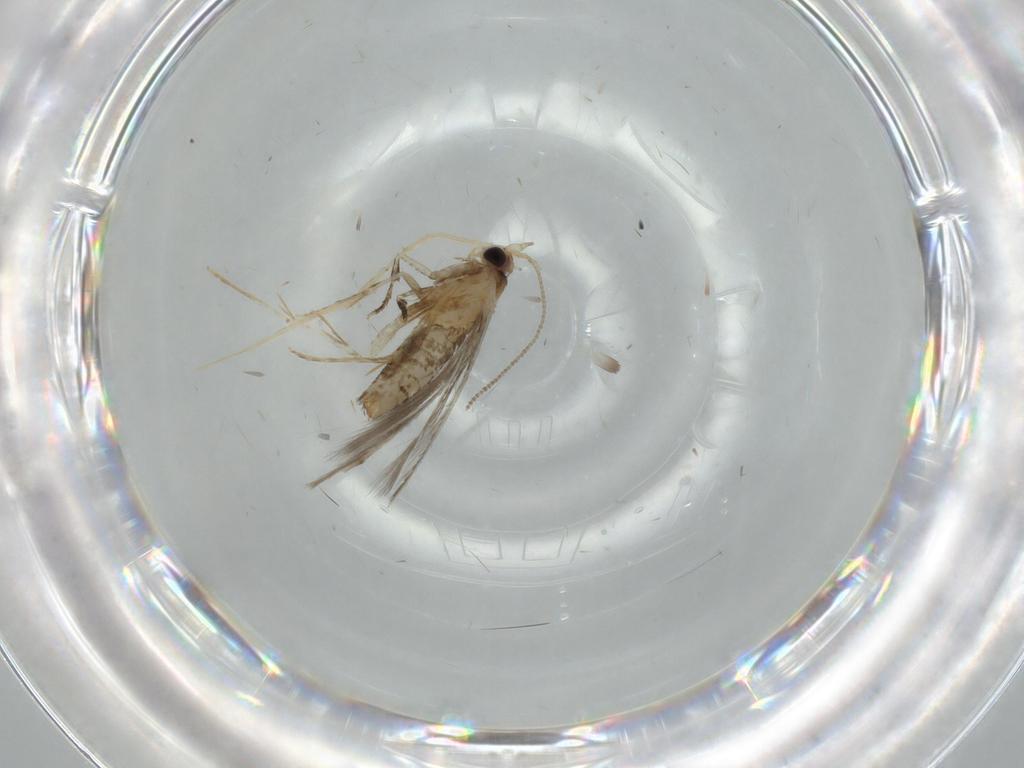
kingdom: Animalia
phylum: Arthropoda
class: Insecta
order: Lepidoptera
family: Tineidae
